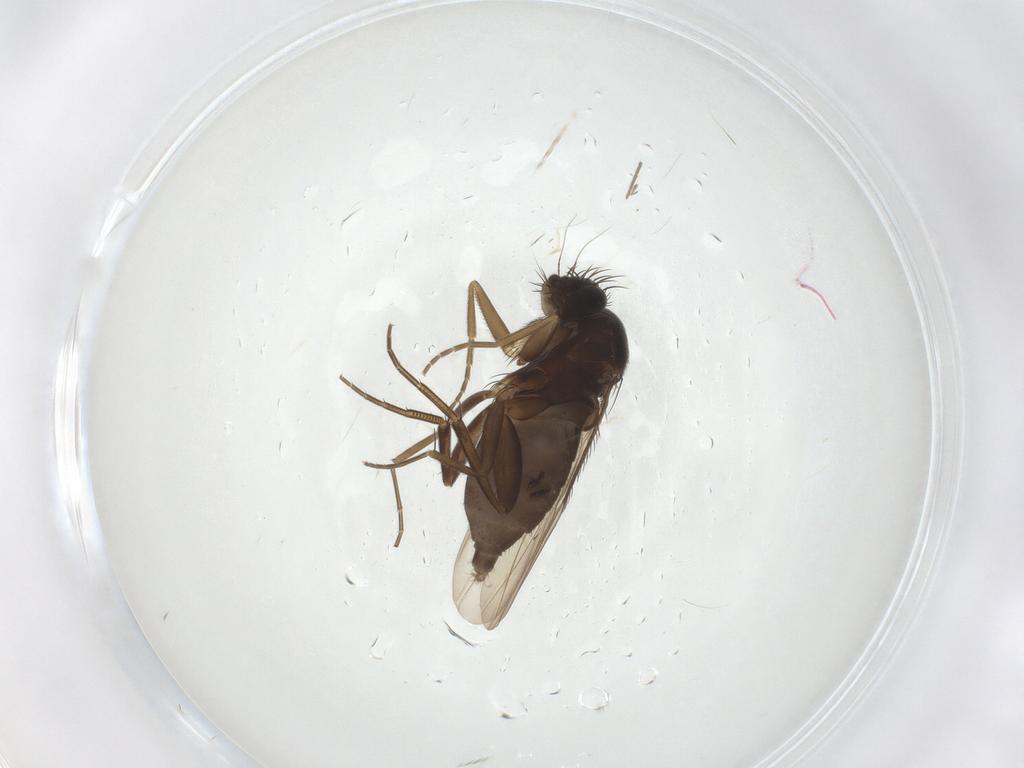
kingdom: Animalia
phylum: Arthropoda
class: Insecta
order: Diptera
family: Phoridae
